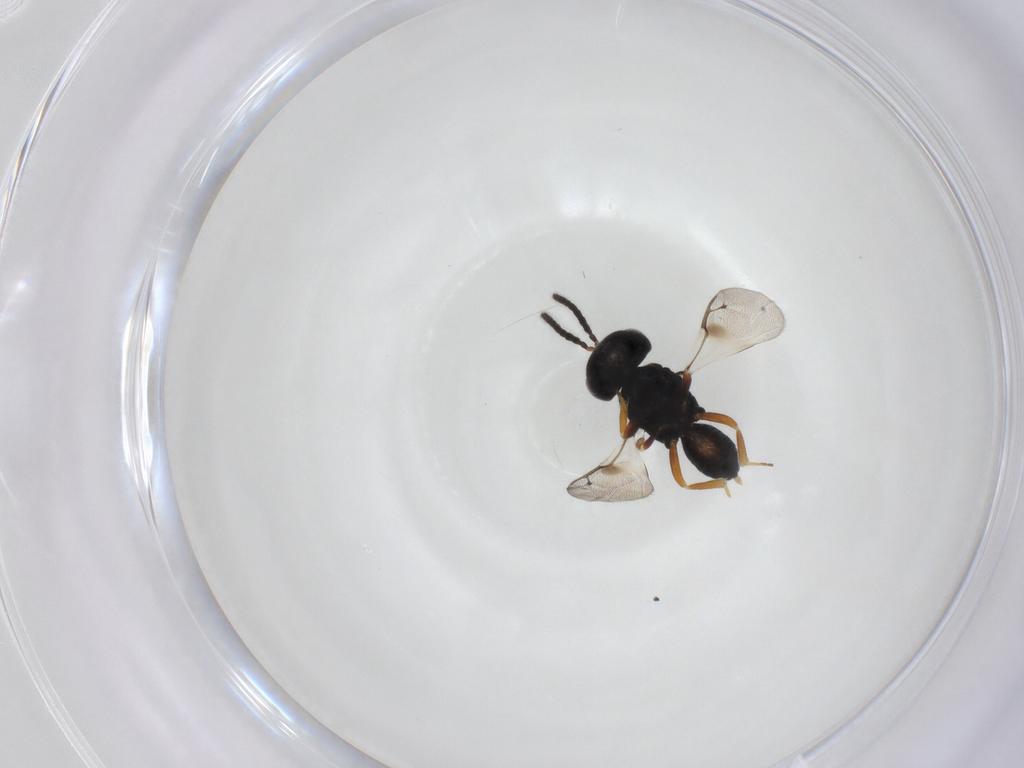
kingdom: Animalia
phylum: Arthropoda
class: Insecta
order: Hymenoptera
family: Pteromalidae
